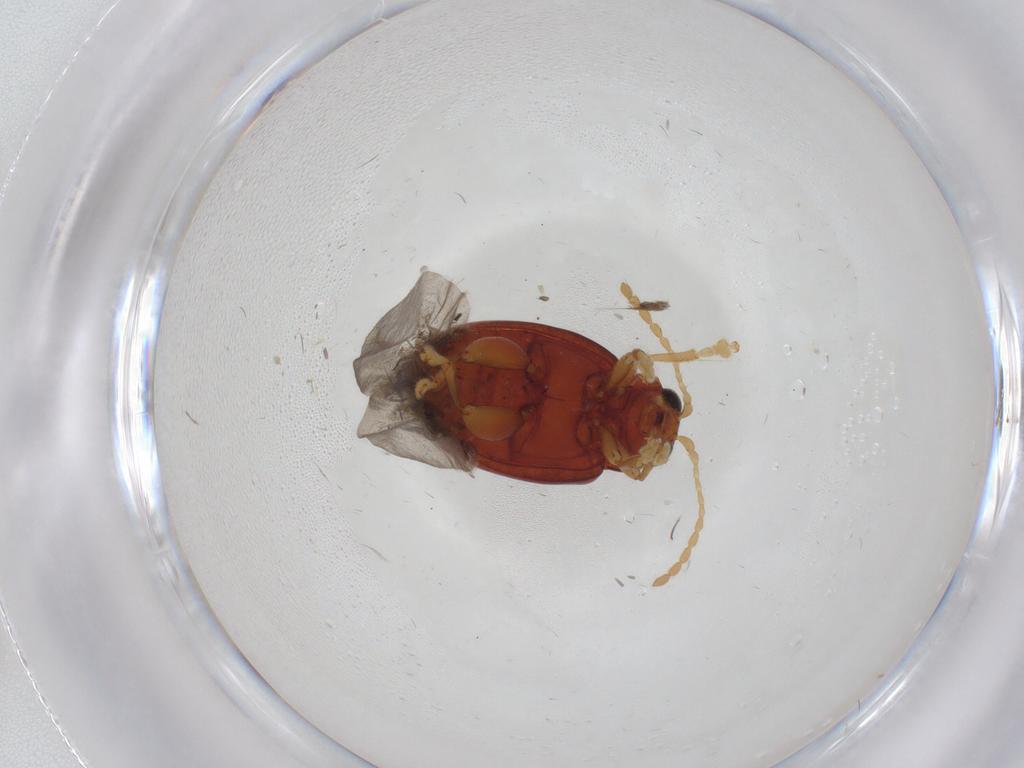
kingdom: Animalia
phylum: Arthropoda
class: Insecta
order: Coleoptera
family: Chrysomelidae
